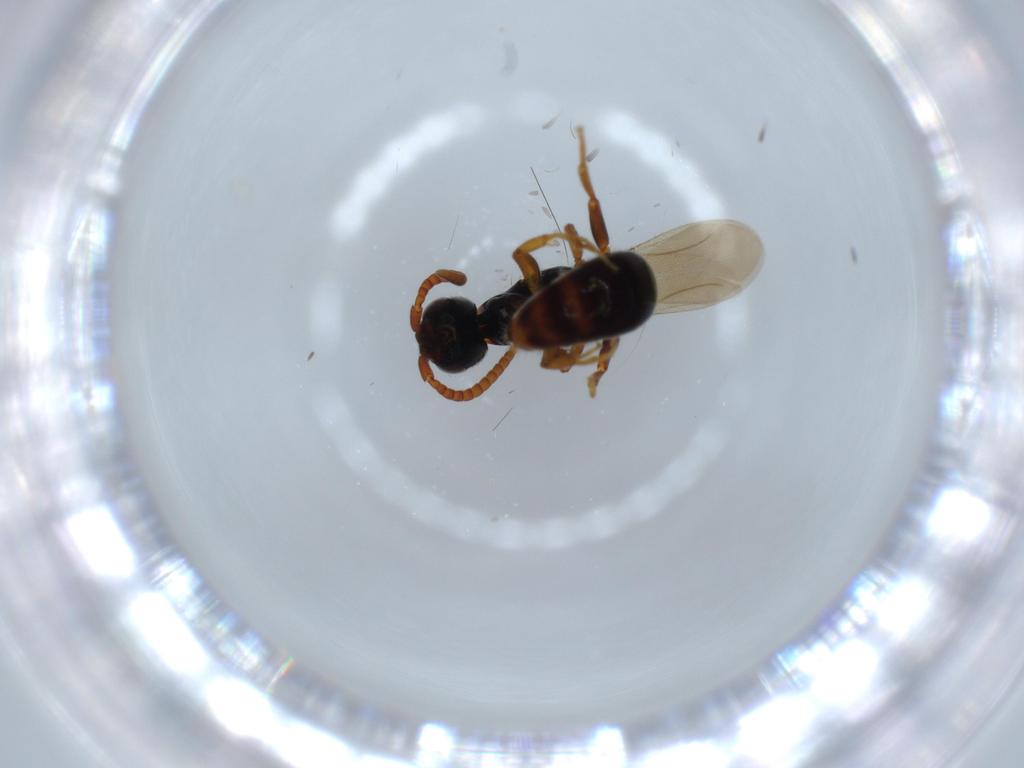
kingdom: Animalia
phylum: Arthropoda
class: Insecta
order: Hymenoptera
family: Bethylidae
